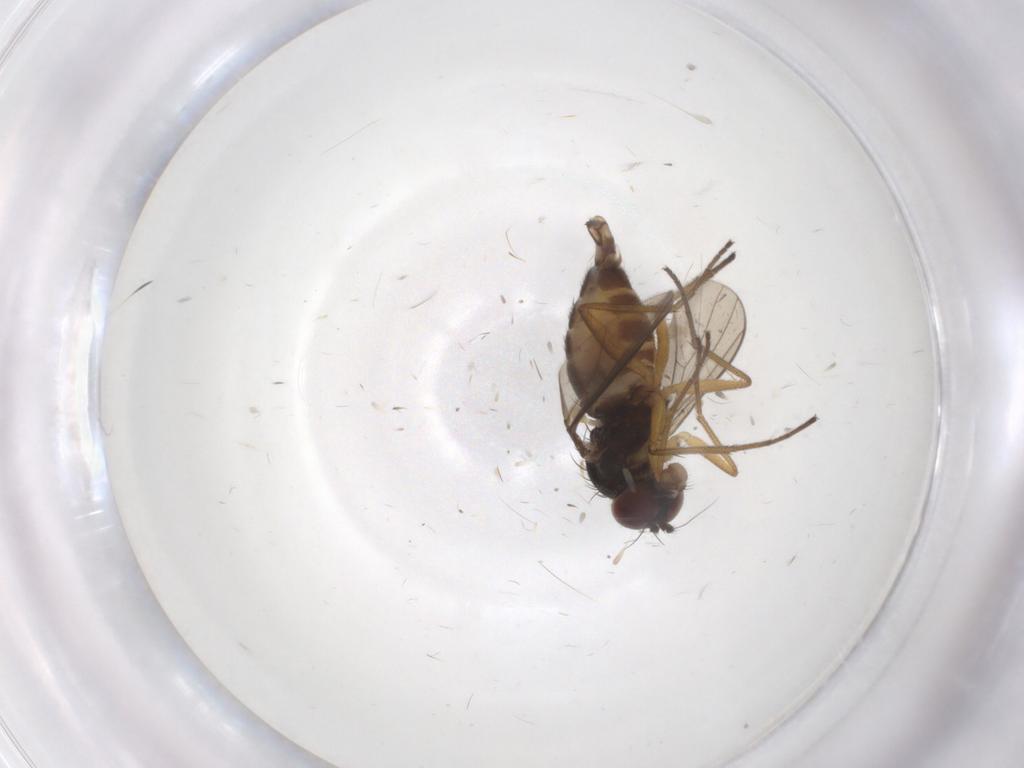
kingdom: Animalia
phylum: Arthropoda
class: Insecta
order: Diptera
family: Dolichopodidae
